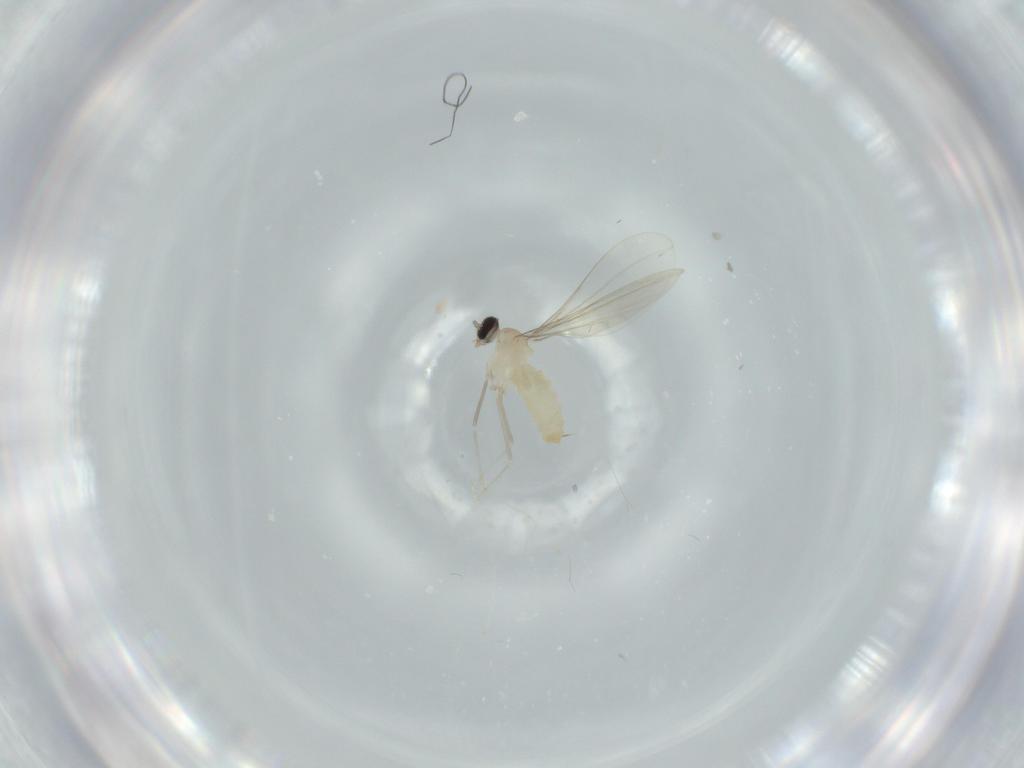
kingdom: Animalia
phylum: Arthropoda
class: Insecta
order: Diptera
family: Cecidomyiidae
